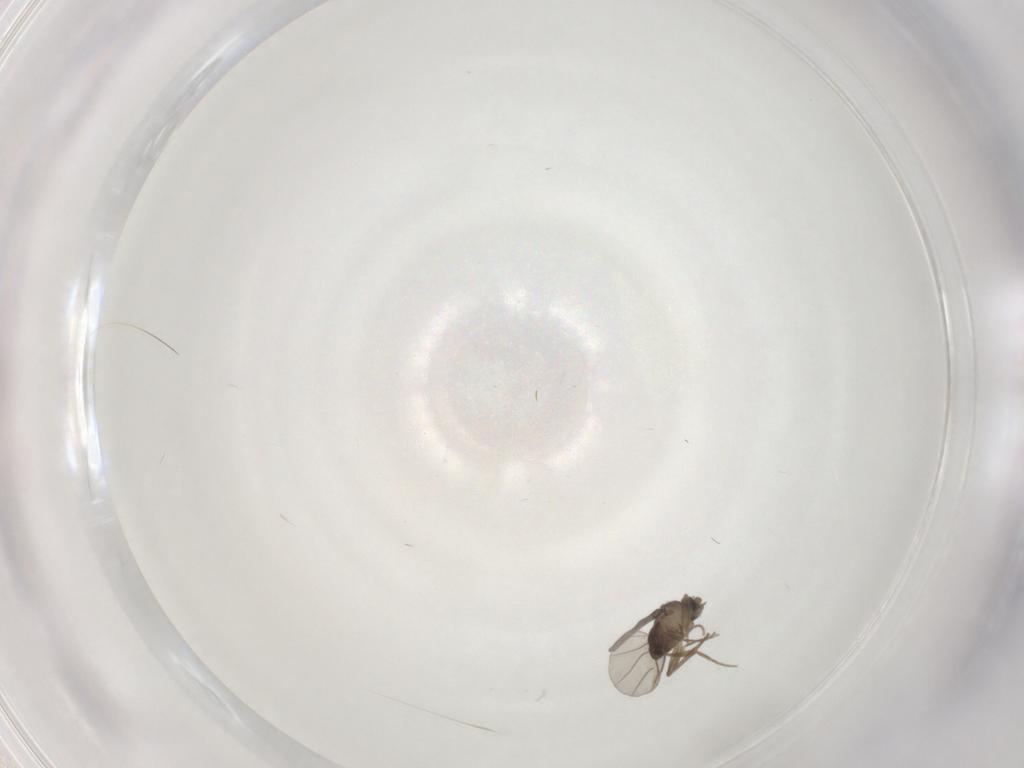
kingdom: Animalia
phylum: Arthropoda
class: Insecta
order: Diptera
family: Phoridae
